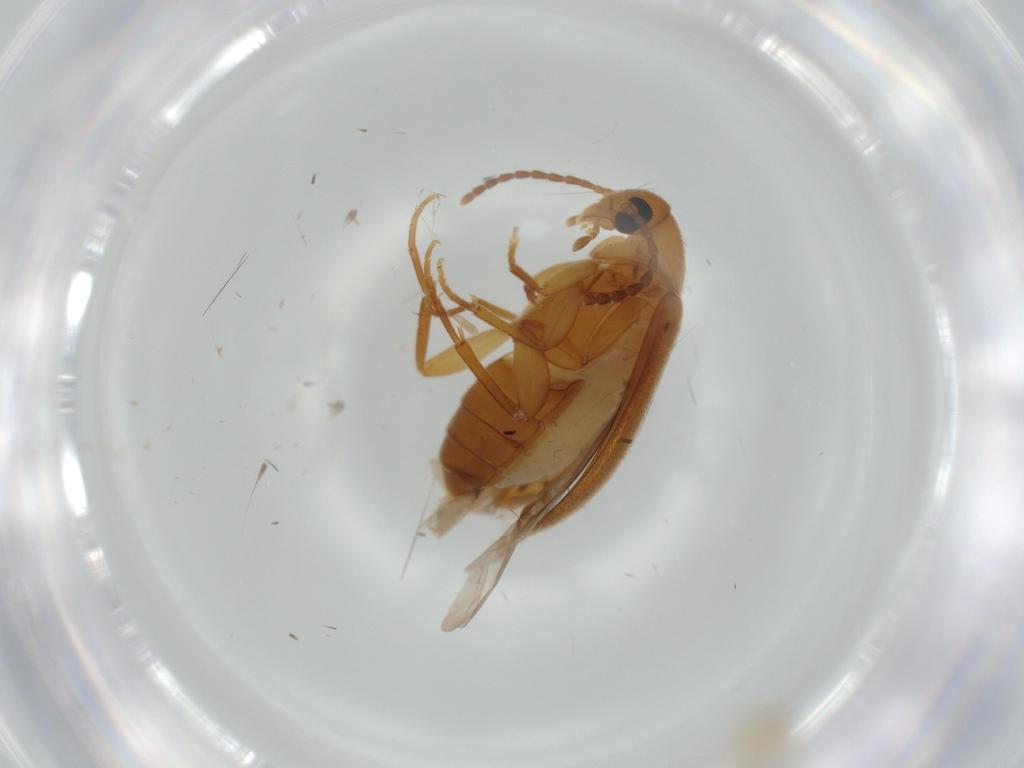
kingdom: Animalia
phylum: Arthropoda
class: Insecta
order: Coleoptera
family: Scraptiidae
